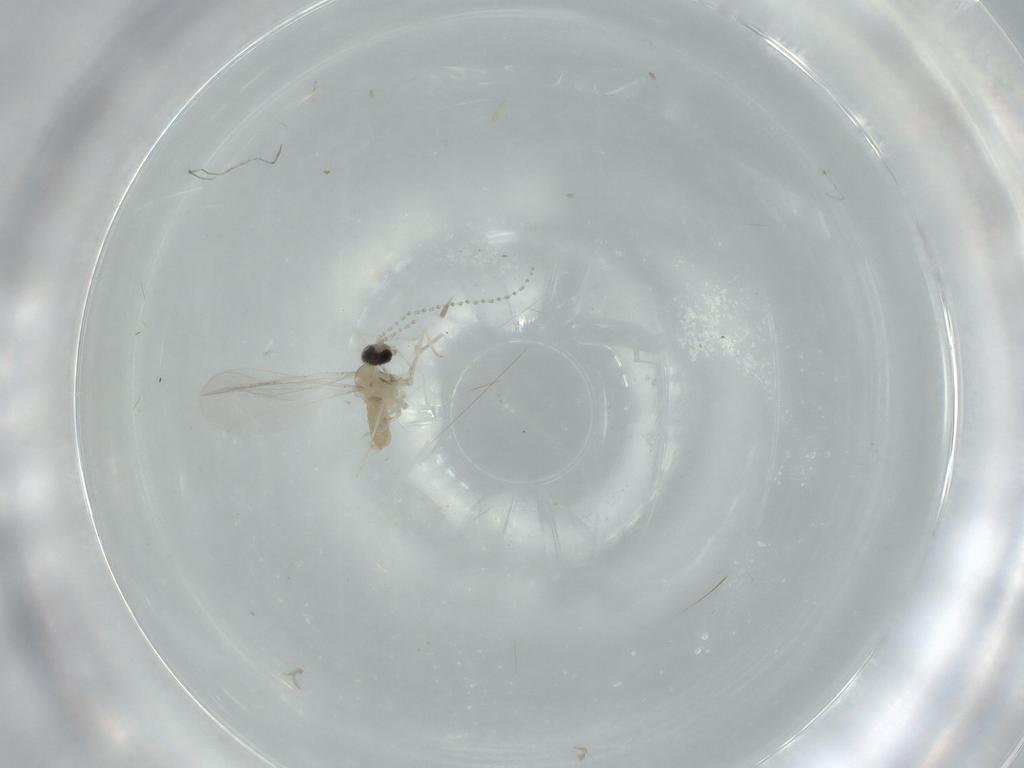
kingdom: Animalia
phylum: Arthropoda
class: Insecta
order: Diptera
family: Cecidomyiidae
